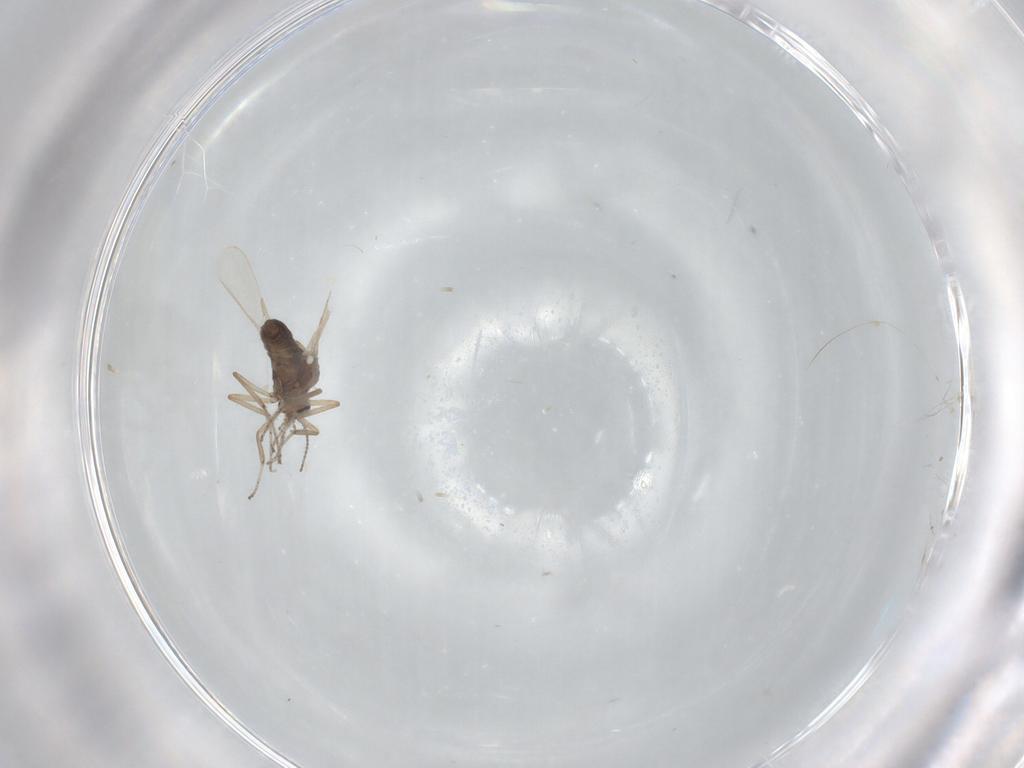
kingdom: Animalia
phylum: Arthropoda
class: Insecta
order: Diptera
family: Ceratopogonidae
